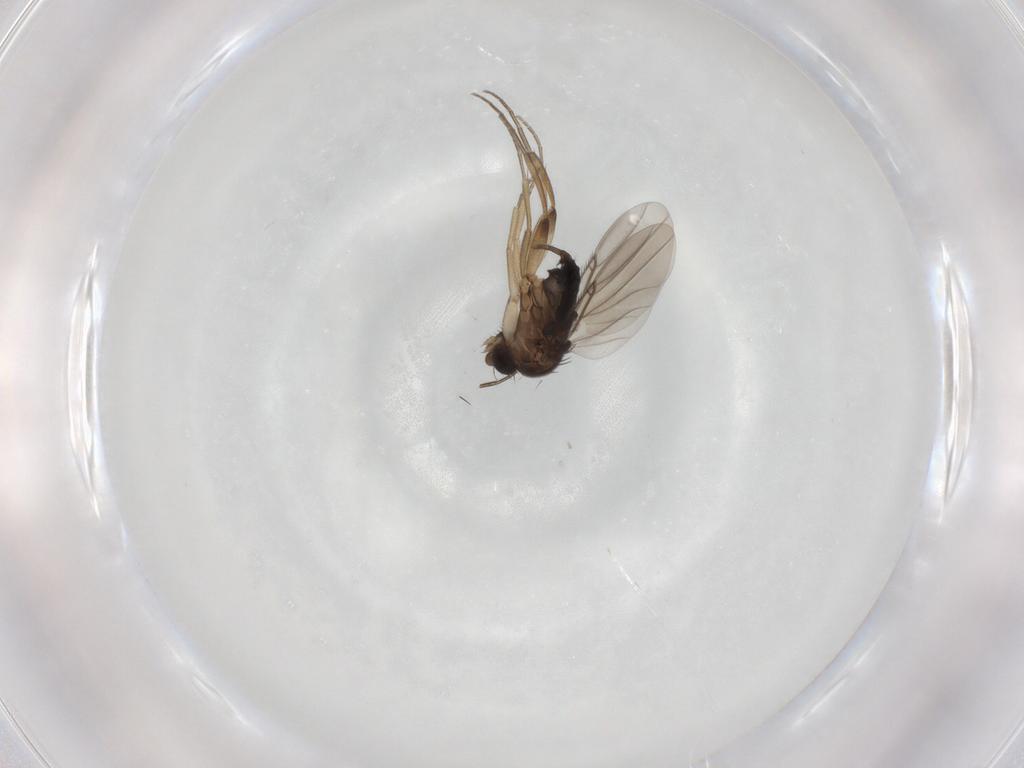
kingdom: Animalia
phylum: Arthropoda
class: Insecta
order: Diptera
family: Phoridae
